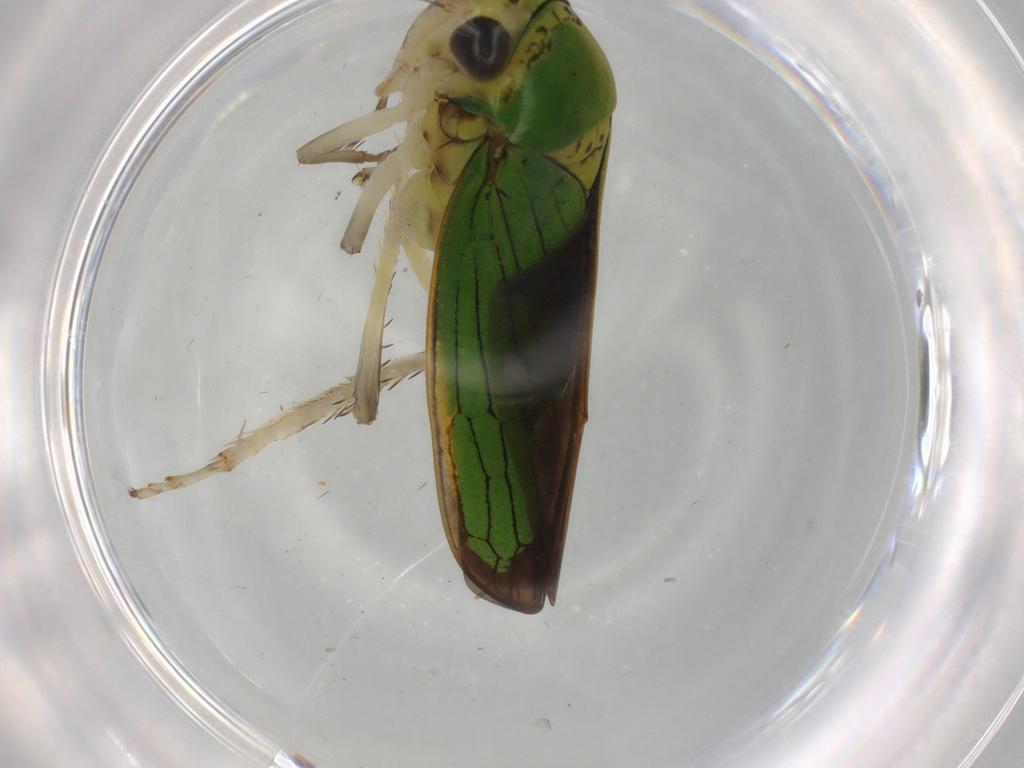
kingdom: Animalia
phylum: Arthropoda
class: Insecta
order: Hemiptera
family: Cicadellidae
